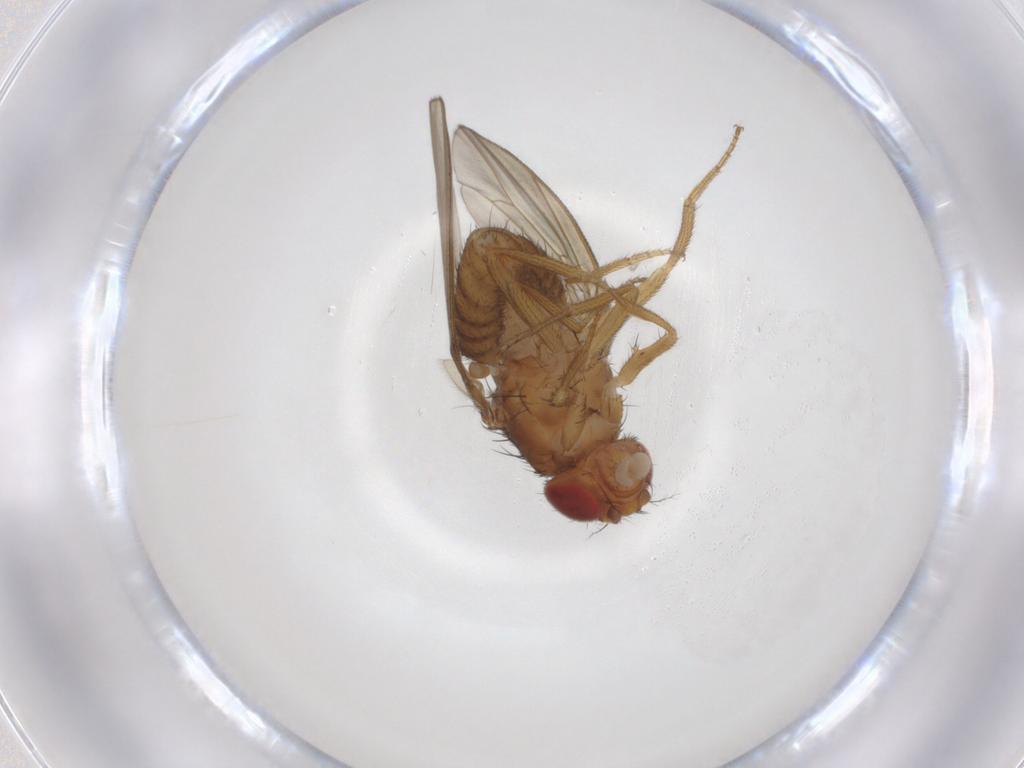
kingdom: Animalia
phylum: Arthropoda
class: Insecta
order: Diptera
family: Drosophilidae
